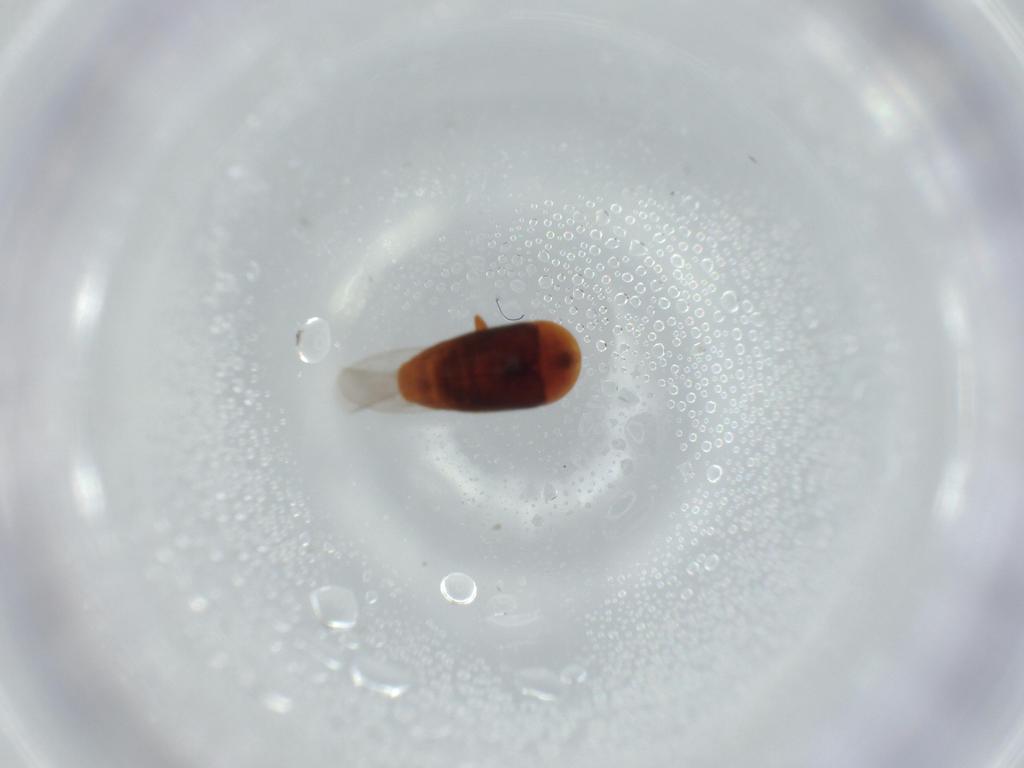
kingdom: Animalia
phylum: Arthropoda
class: Insecta
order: Coleoptera
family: Corylophidae
